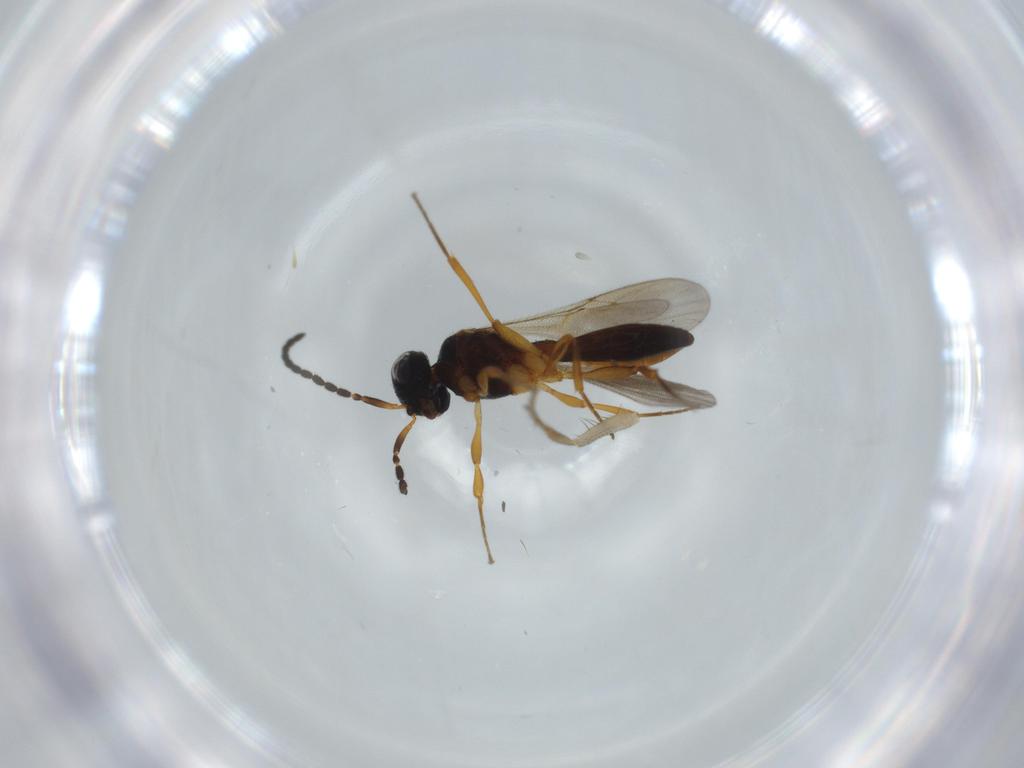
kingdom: Animalia
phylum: Arthropoda
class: Insecta
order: Hymenoptera
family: Scelionidae
